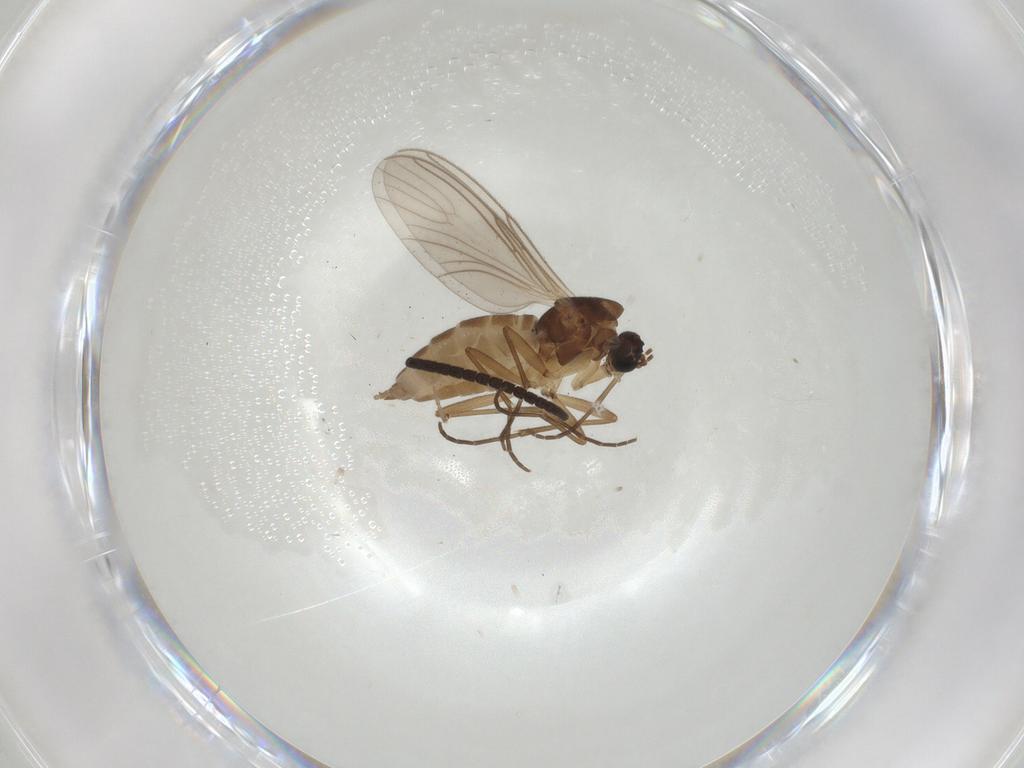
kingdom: Animalia
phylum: Arthropoda
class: Insecta
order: Diptera
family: Sciaridae
